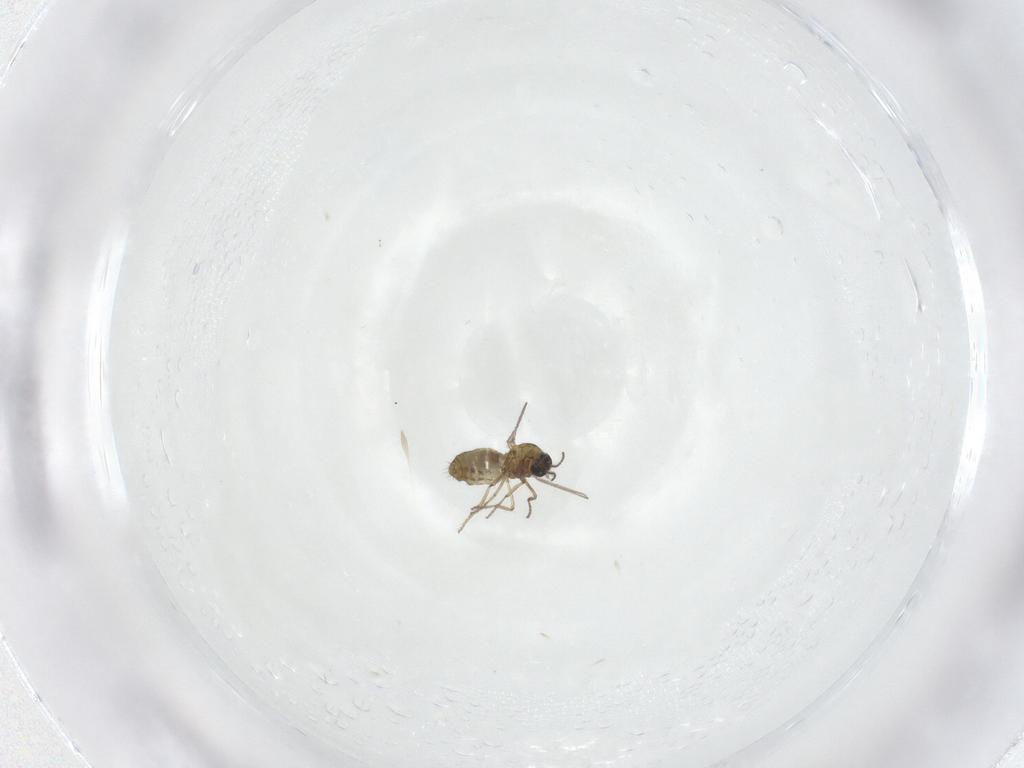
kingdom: Animalia
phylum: Arthropoda
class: Insecta
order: Diptera
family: Ceratopogonidae
